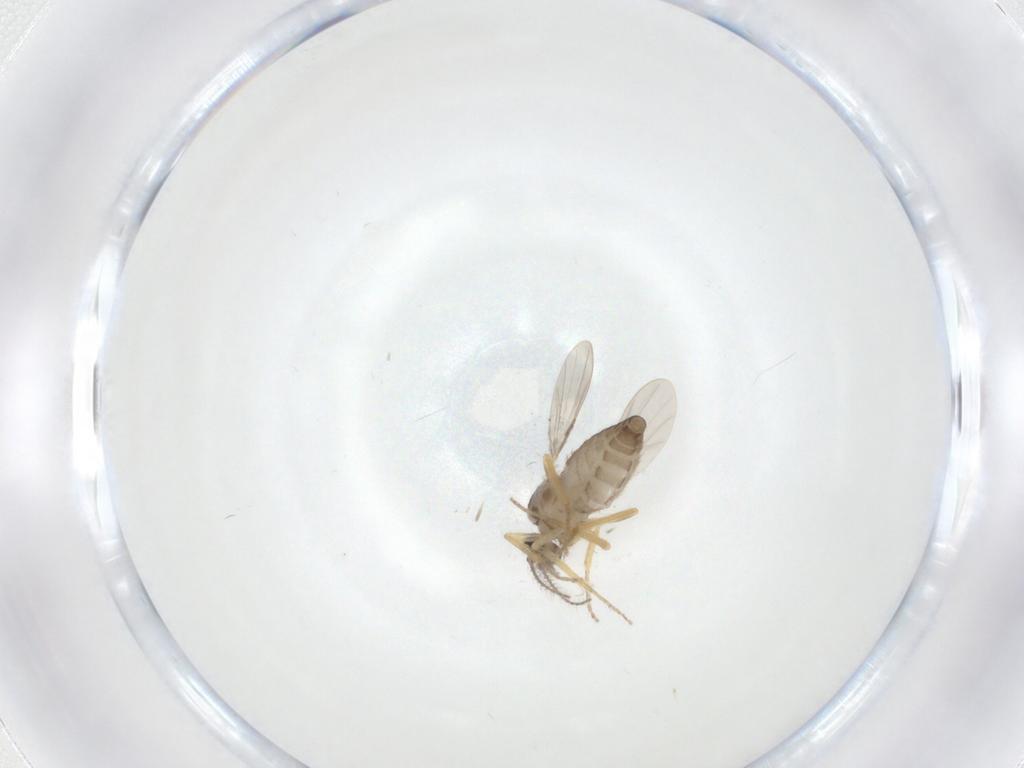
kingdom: Animalia
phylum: Arthropoda
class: Insecta
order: Diptera
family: Ceratopogonidae
